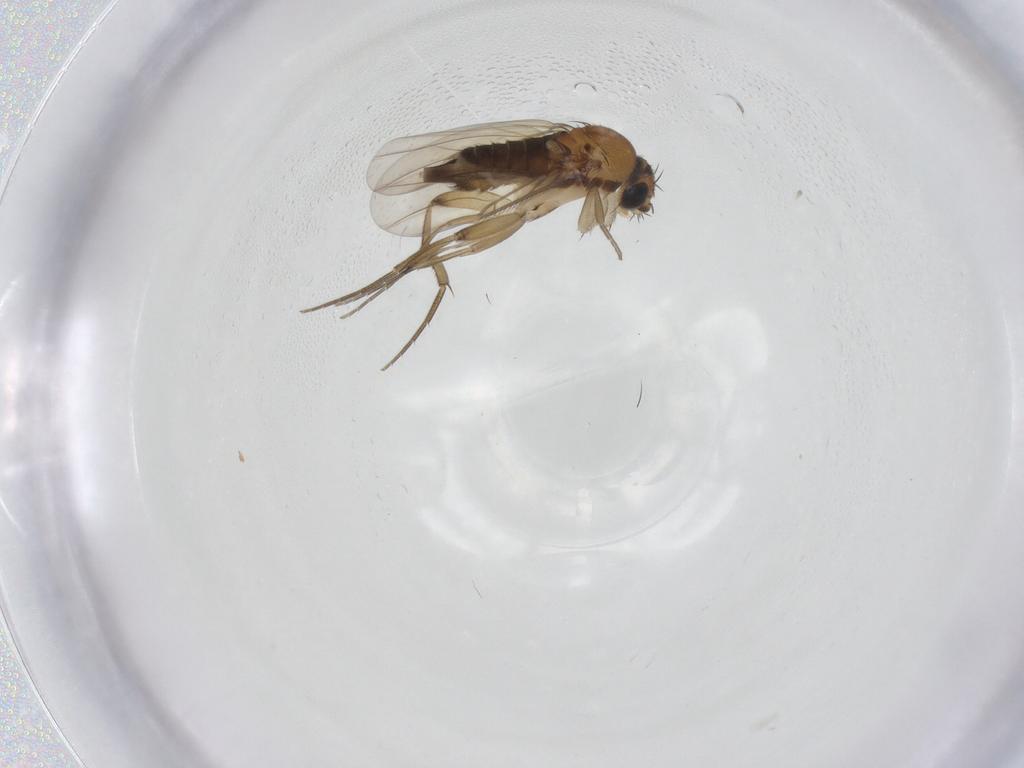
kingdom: Animalia
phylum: Arthropoda
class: Insecta
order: Diptera
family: Phoridae
